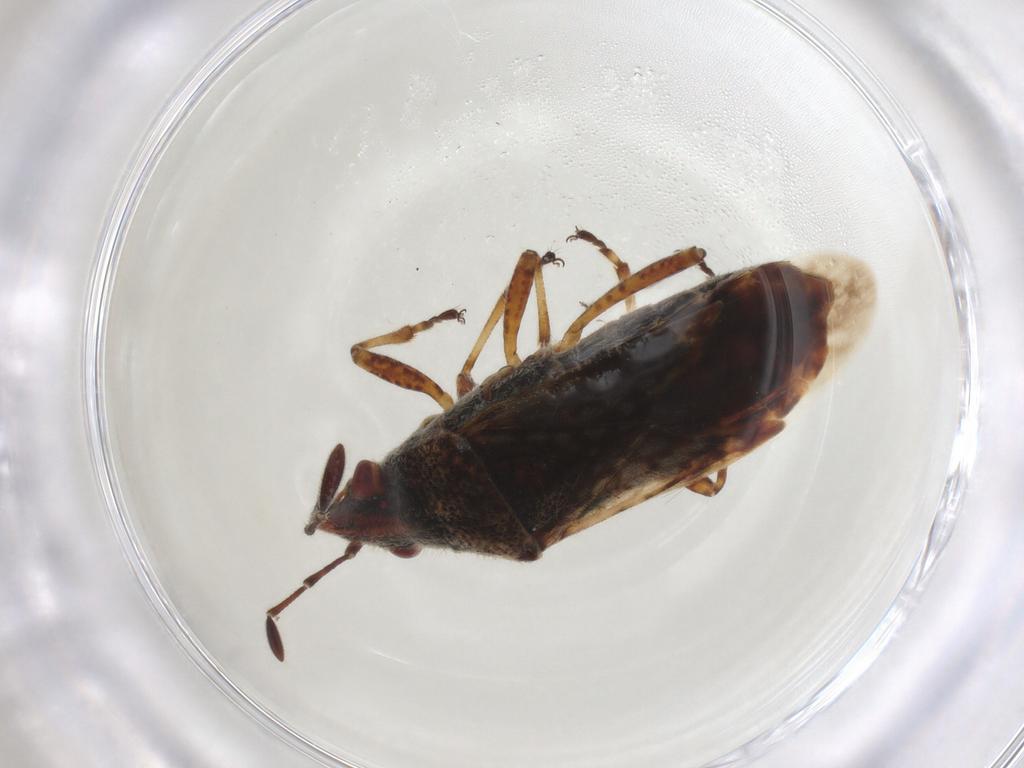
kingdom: Animalia
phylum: Arthropoda
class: Insecta
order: Hemiptera
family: Lygaeidae
